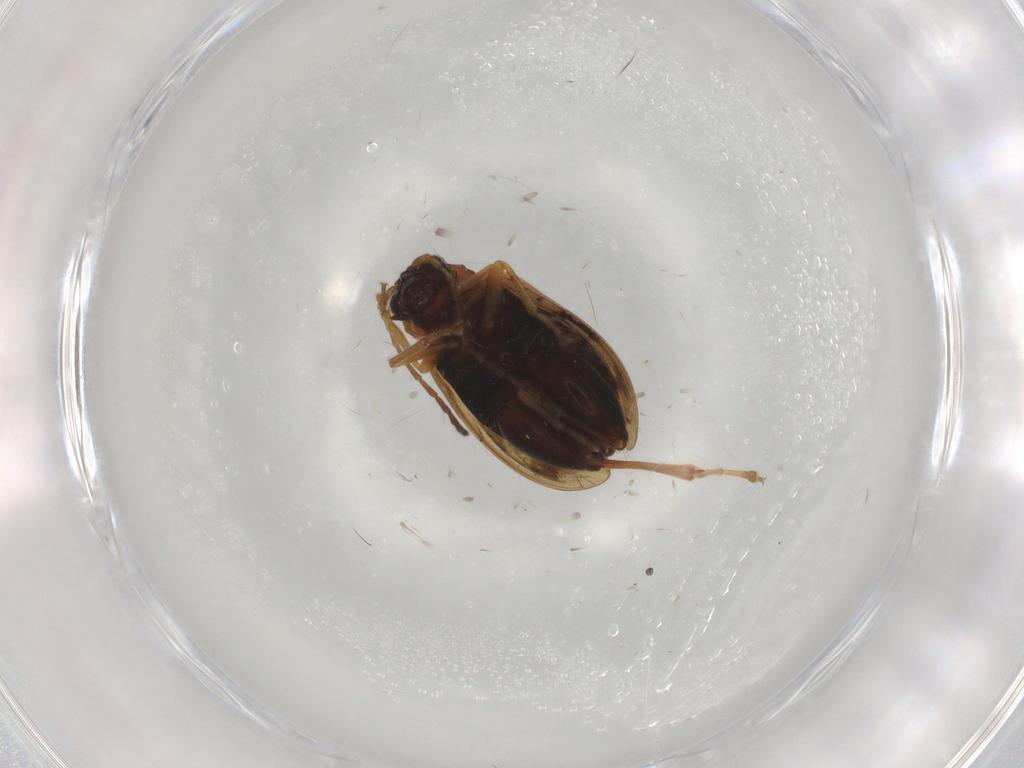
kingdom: Animalia
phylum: Arthropoda
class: Insecta
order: Coleoptera
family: Chrysomelidae
